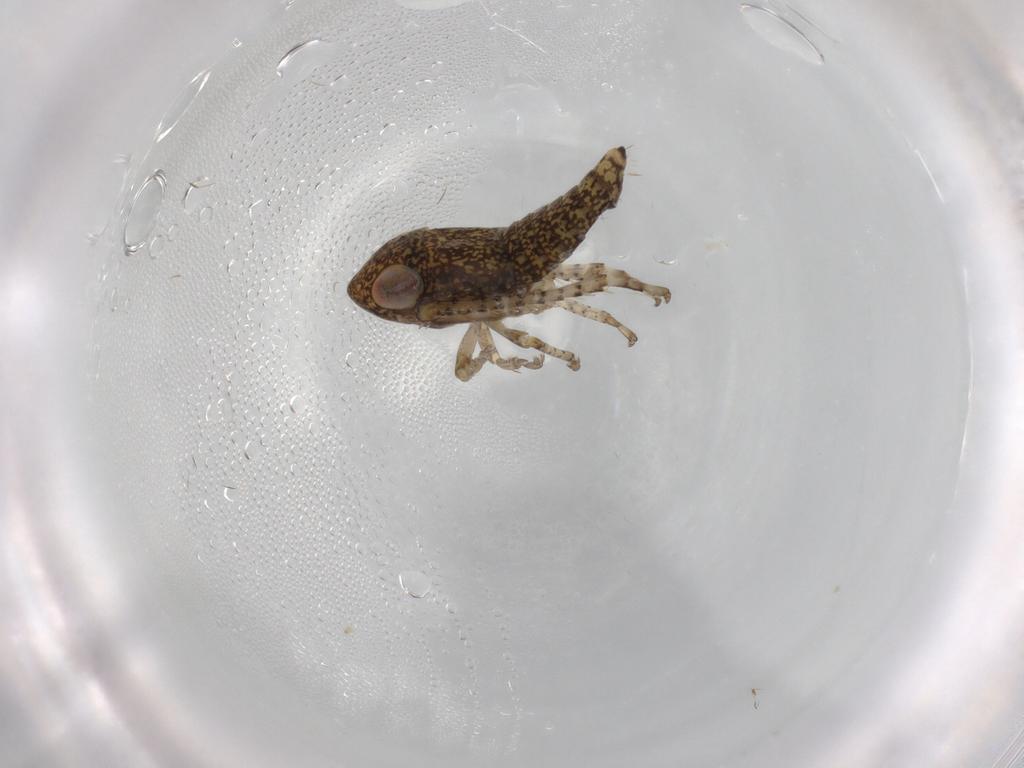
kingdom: Animalia
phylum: Arthropoda
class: Insecta
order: Hemiptera
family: Cicadellidae
